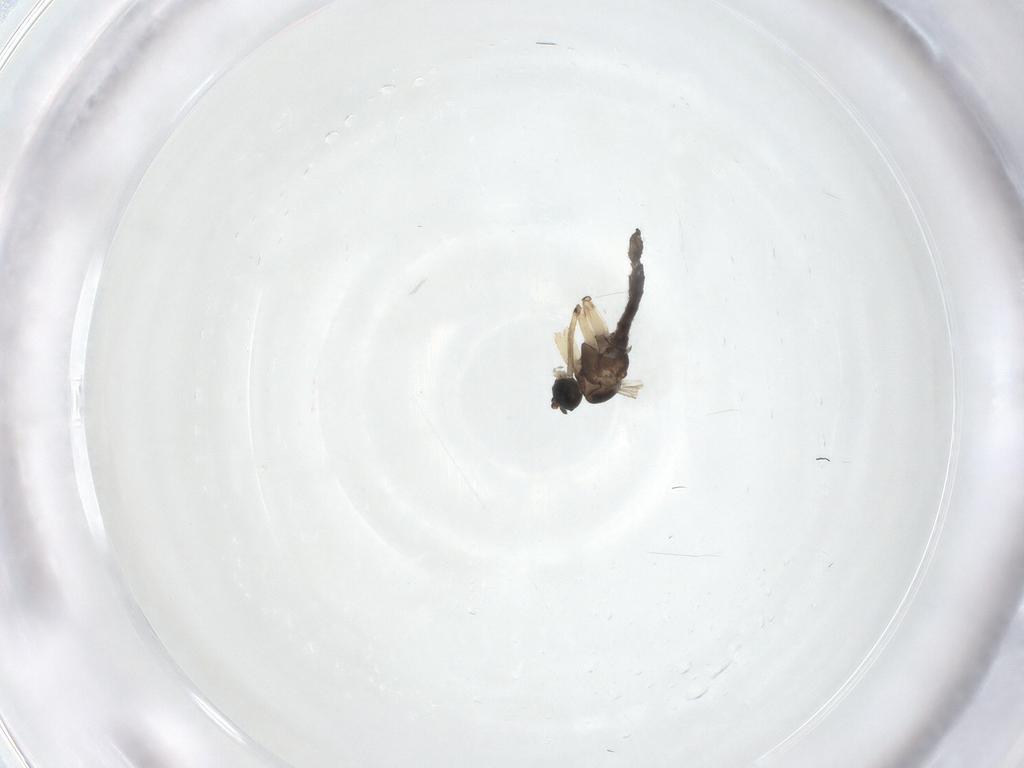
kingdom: Animalia
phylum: Arthropoda
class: Insecta
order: Diptera
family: Sciaridae
